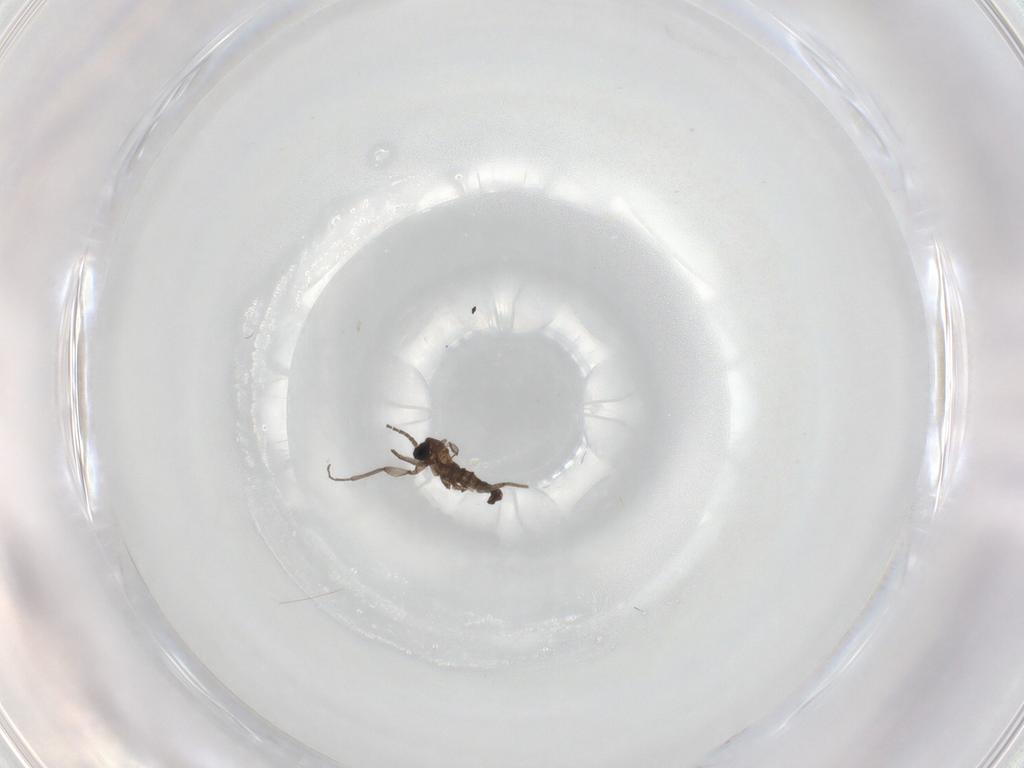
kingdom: Animalia
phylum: Arthropoda
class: Insecta
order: Diptera
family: Sciaridae
